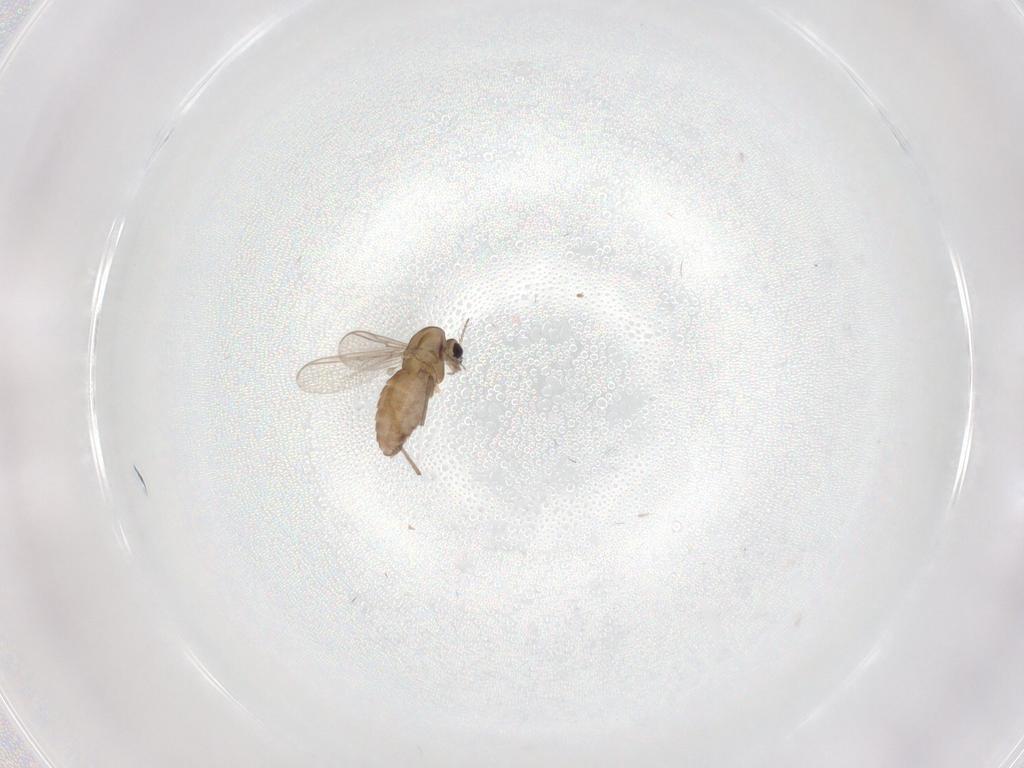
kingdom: Animalia
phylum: Arthropoda
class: Insecta
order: Diptera
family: Chironomidae
